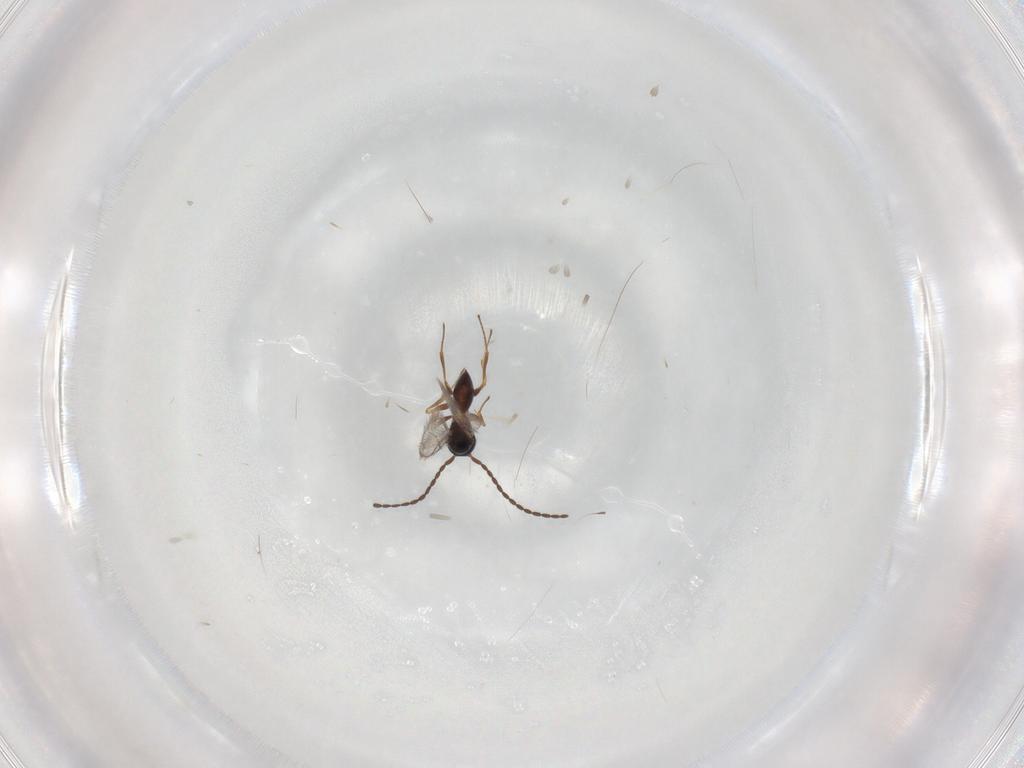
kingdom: Animalia
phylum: Arthropoda
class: Insecta
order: Hymenoptera
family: Figitidae
